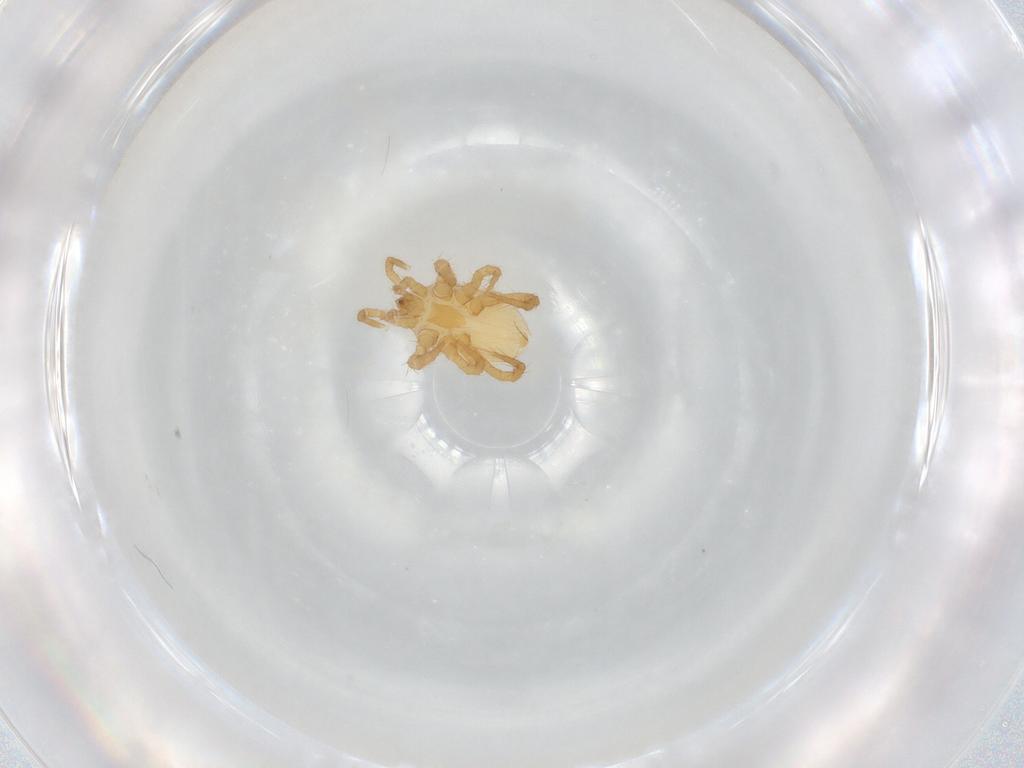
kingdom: Animalia
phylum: Arthropoda
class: Arachnida
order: Mesostigmata
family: Parasitidae
